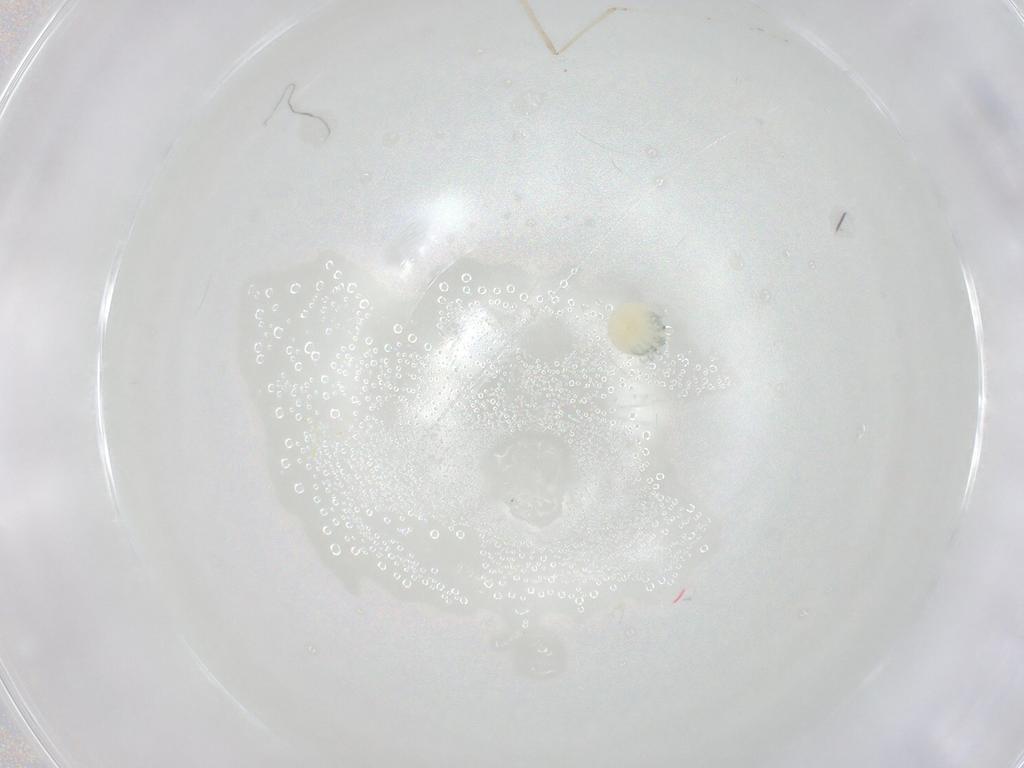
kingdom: Animalia
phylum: Arthropoda
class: Arachnida
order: Trombidiformes
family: Arrenuridae
